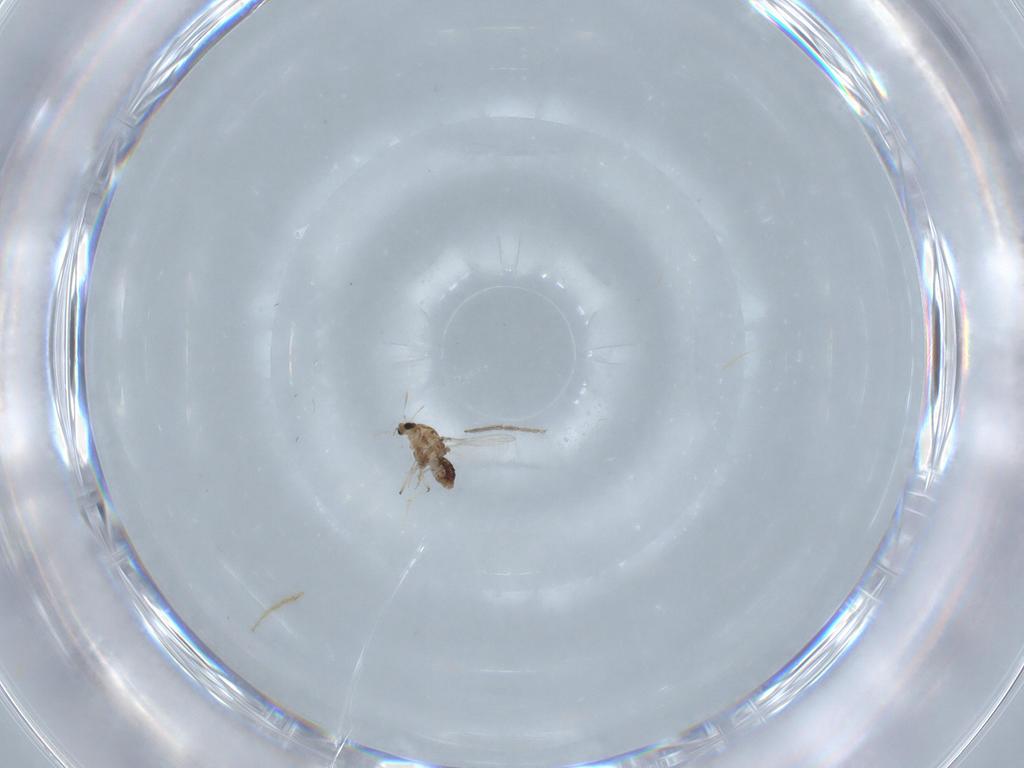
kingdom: Animalia
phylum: Arthropoda
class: Insecta
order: Diptera
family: Chironomidae
